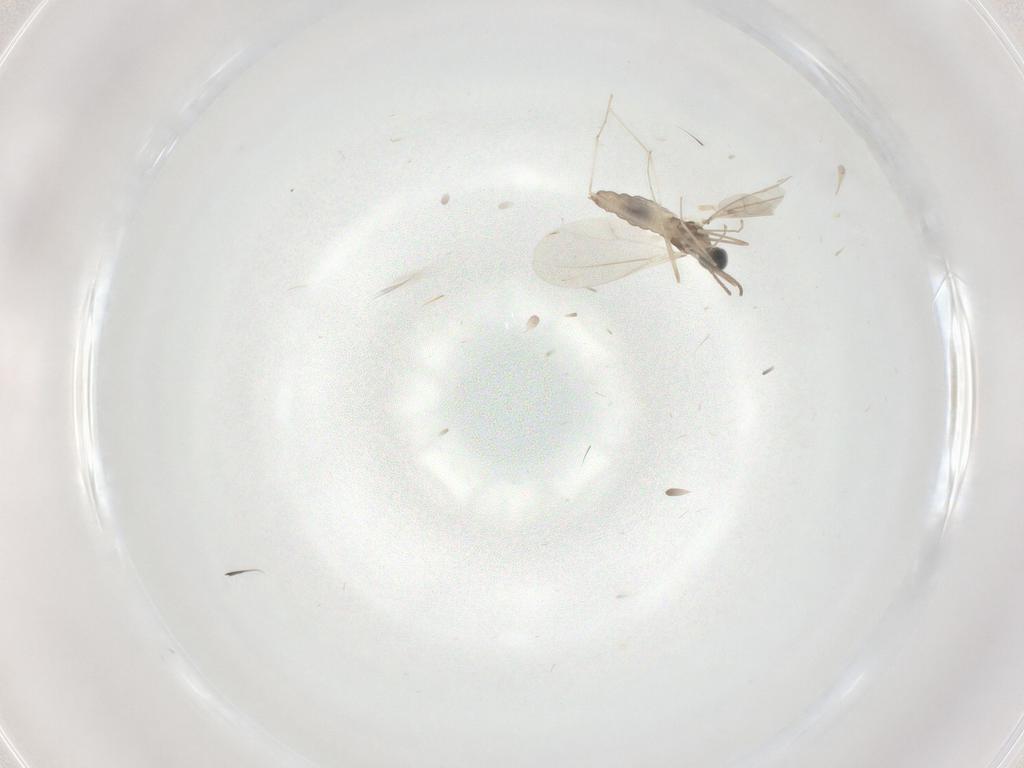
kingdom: Animalia
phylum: Arthropoda
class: Insecta
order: Diptera
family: Cecidomyiidae
